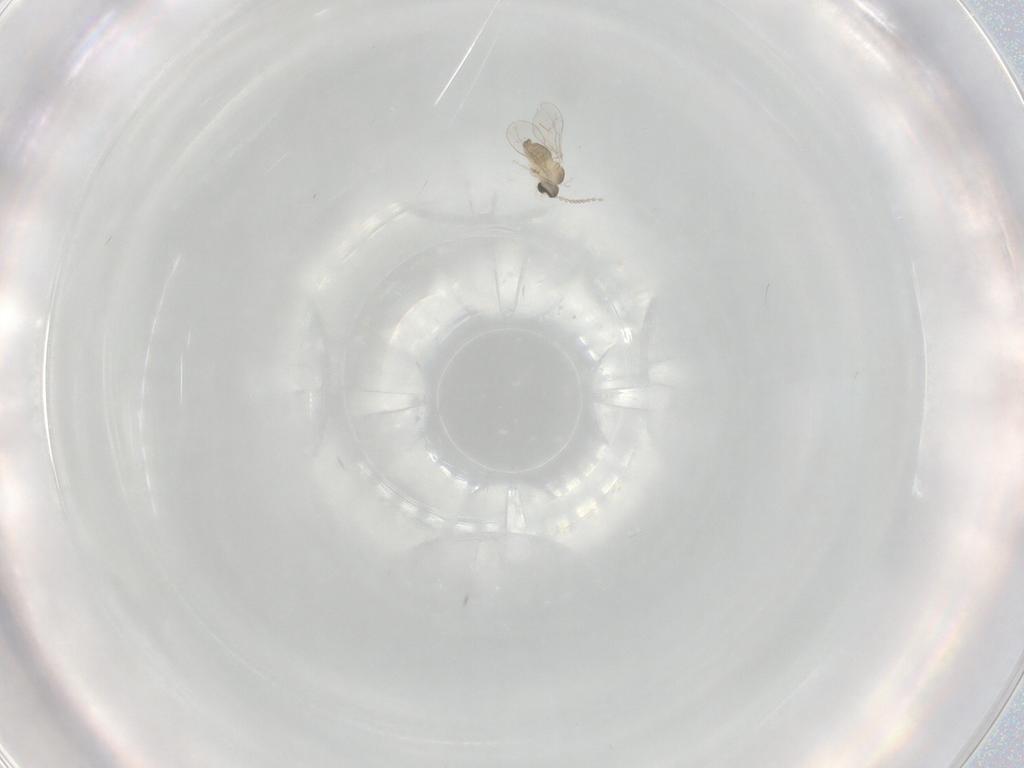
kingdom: Animalia
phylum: Arthropoda
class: Insecta
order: Diptera
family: Cecidomyiidae
